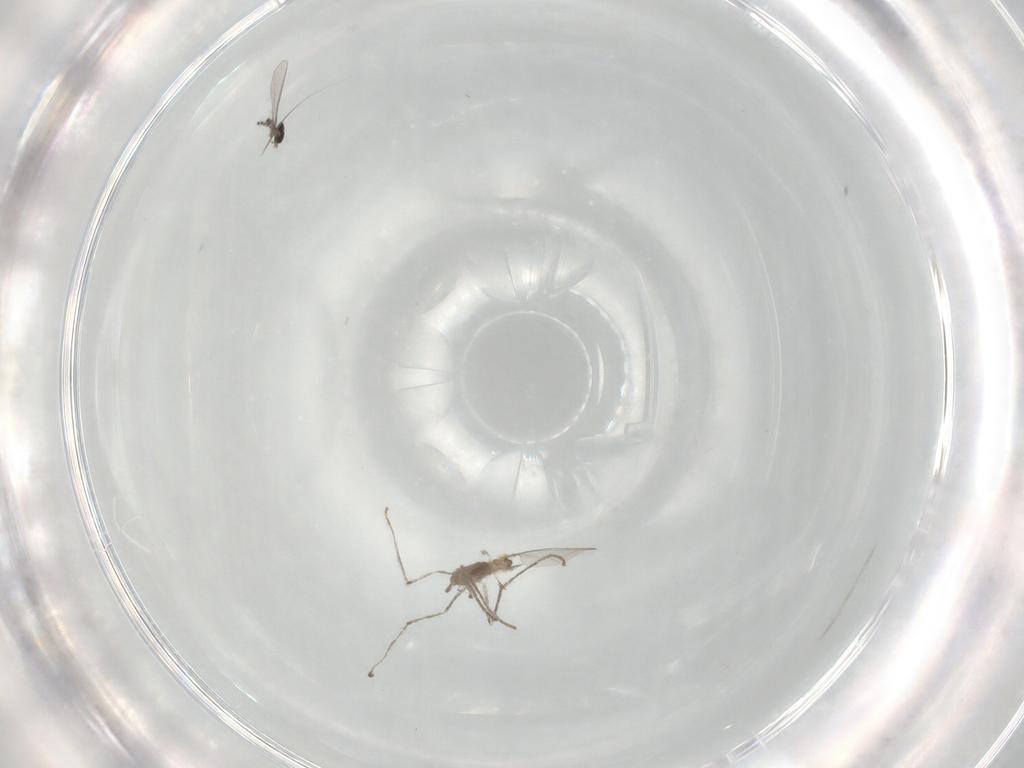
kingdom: Animalia
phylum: Arthropoda
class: Insecta
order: Diptera
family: Cecidomyiidae
